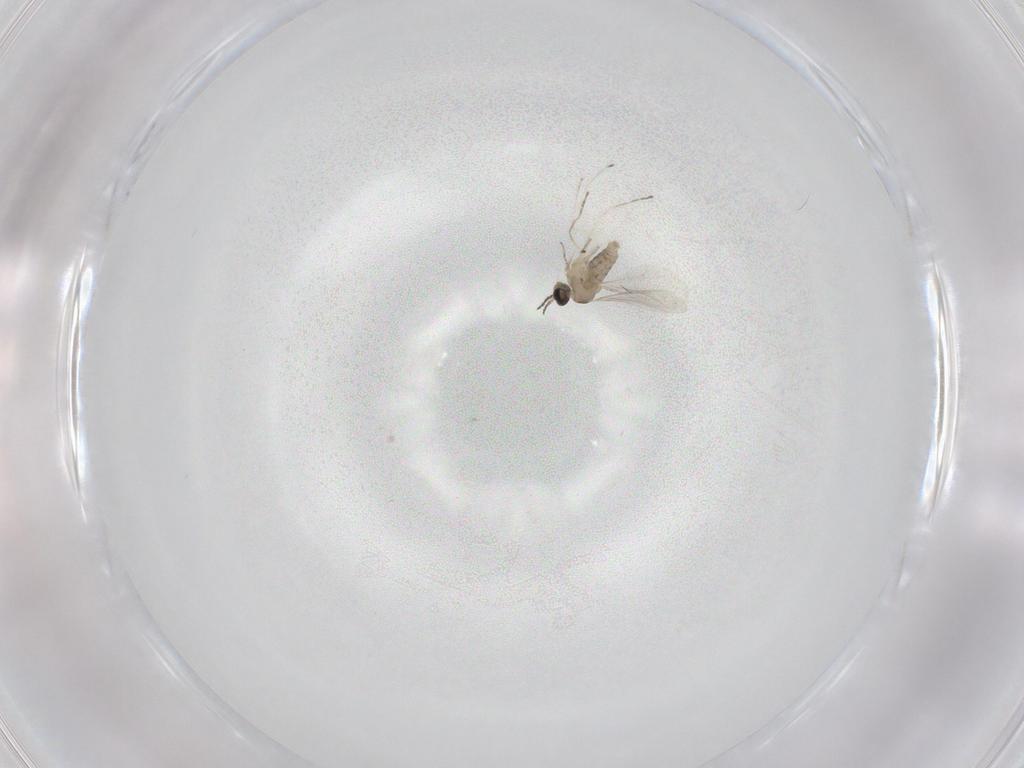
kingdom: Animalia
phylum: Arthropoda
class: Insecta
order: Diptera
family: Cecidomyiidae
